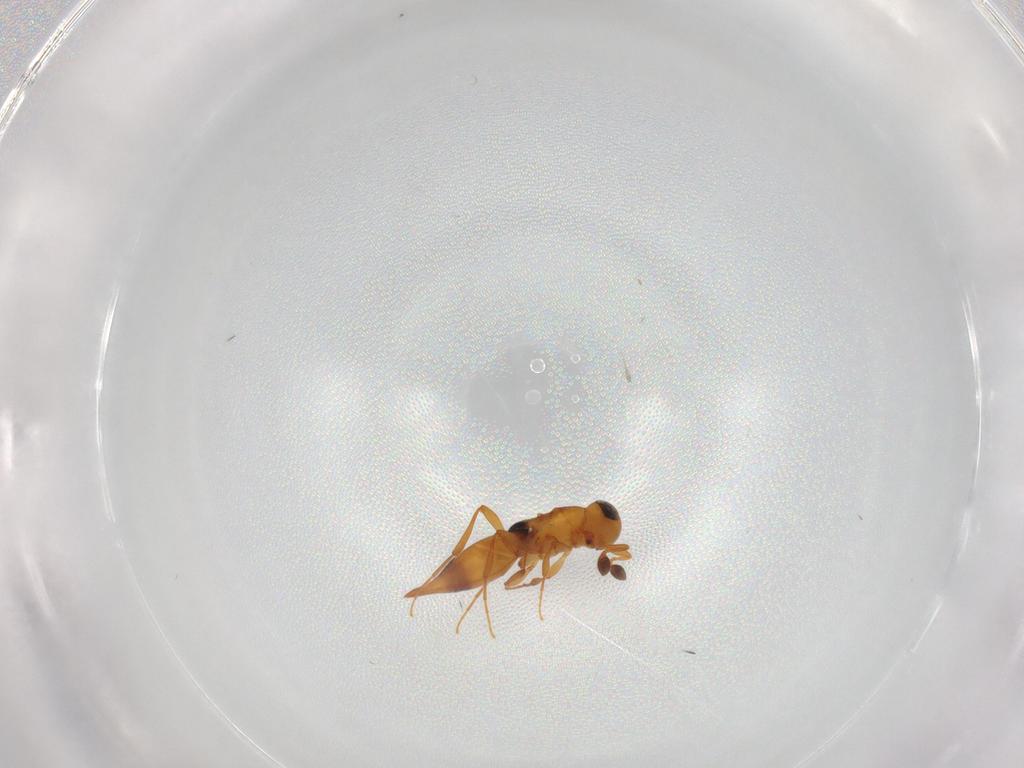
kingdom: Animalia
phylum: Arthropoda
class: Insecta
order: Hymenoptera
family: Platygastridae
